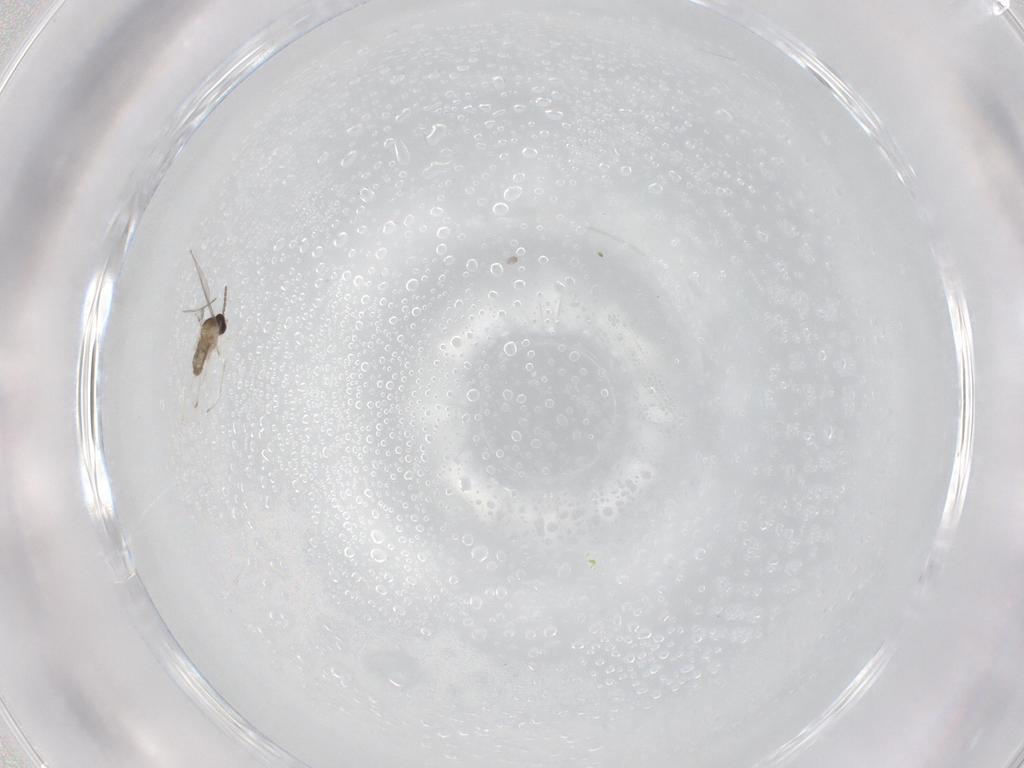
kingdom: Animalia
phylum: Arthropoda
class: Insecta
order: Diptera
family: Cecidomyiidae
